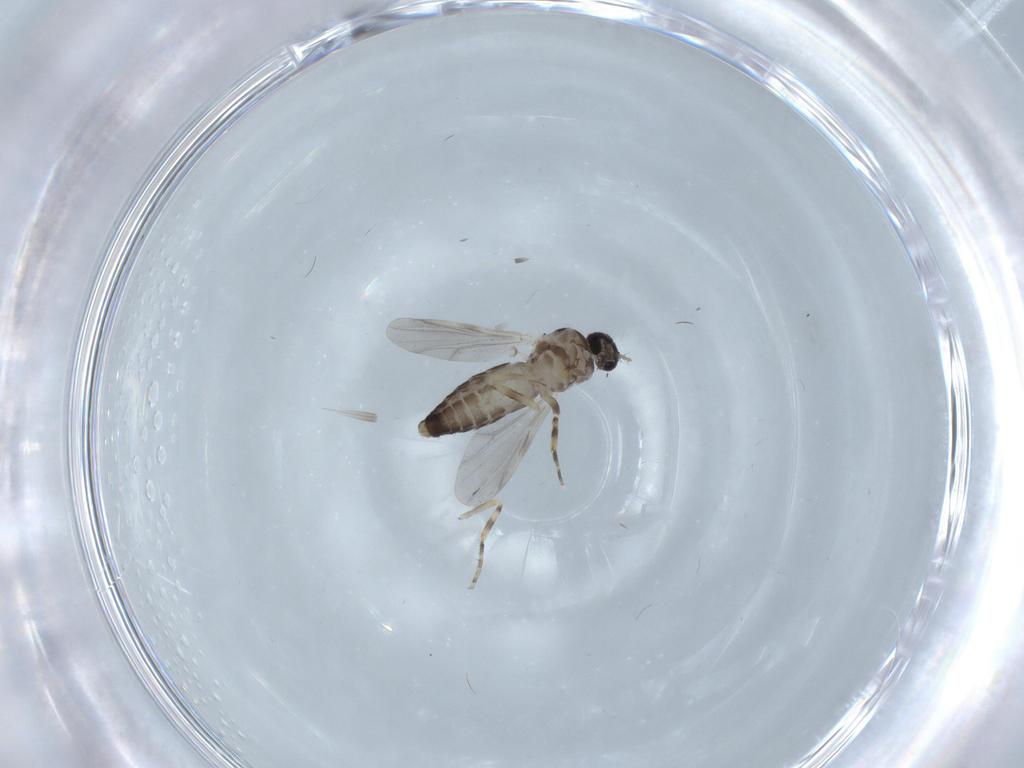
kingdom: Animalia
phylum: Arthropoda
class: Insecta
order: Diptera
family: Ceratopogonidae
